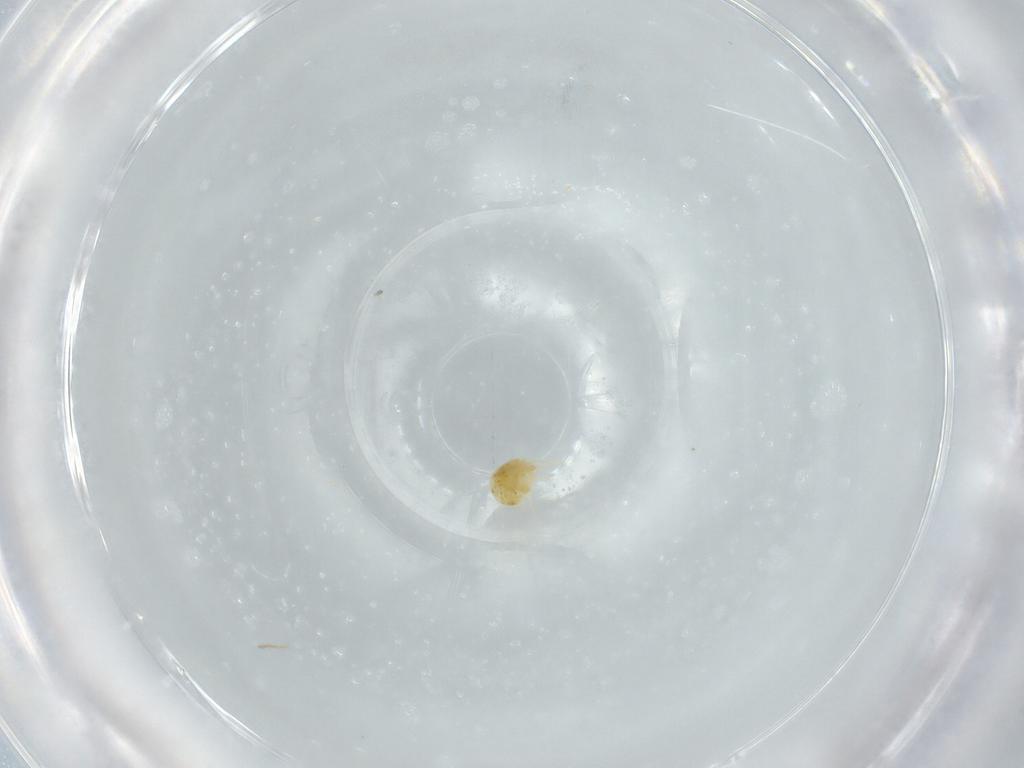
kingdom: Animalia
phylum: Arthropoda
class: Arachnida
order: Trombidiformes
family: Tetranychidae
